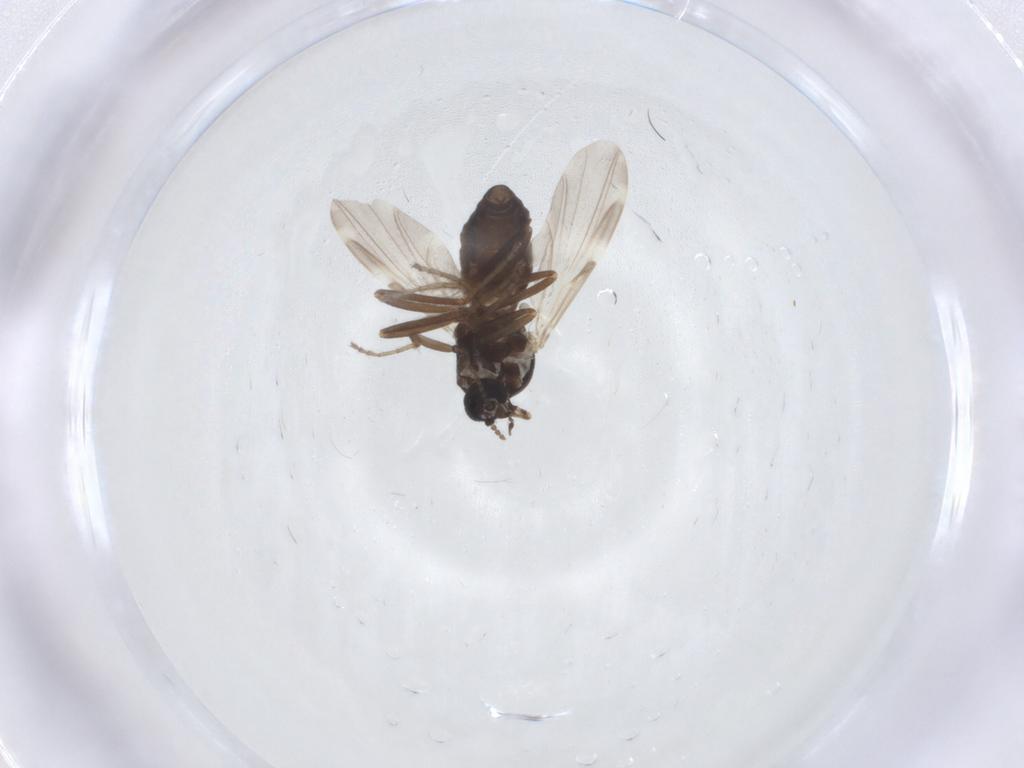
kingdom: Animalia
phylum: Arthropoda
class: Insecta
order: Diptera
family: Ceratopogonidae
